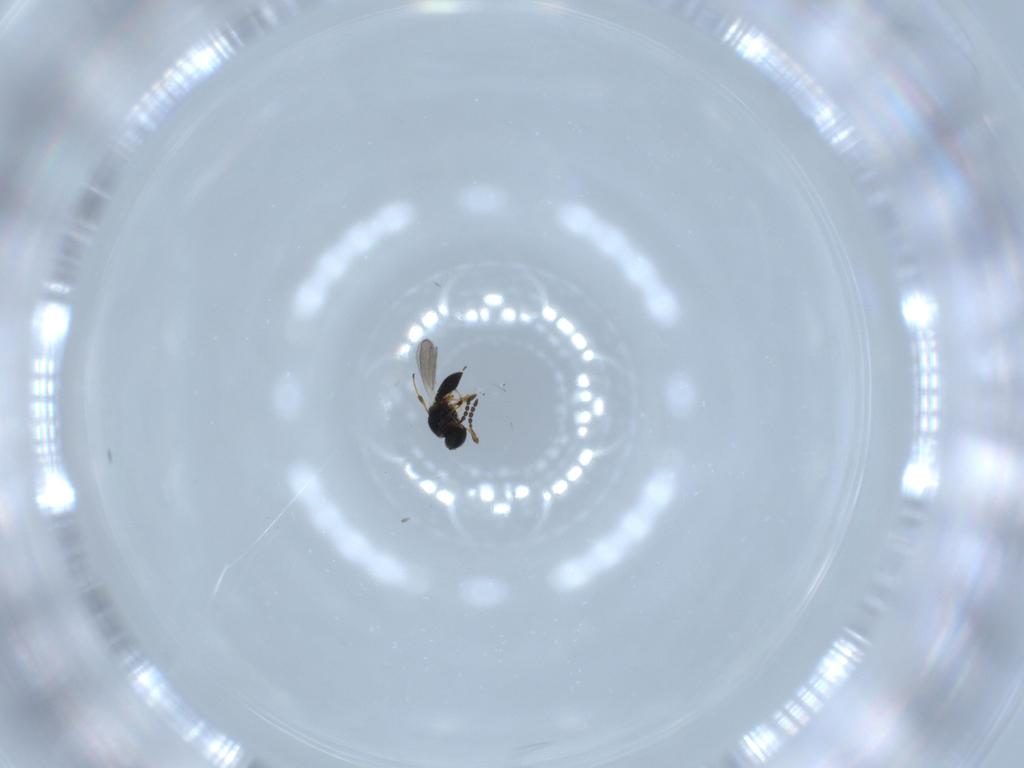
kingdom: Animalia
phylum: Arthropoda
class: Insecta
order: Hymenoptera
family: Platygastridae
